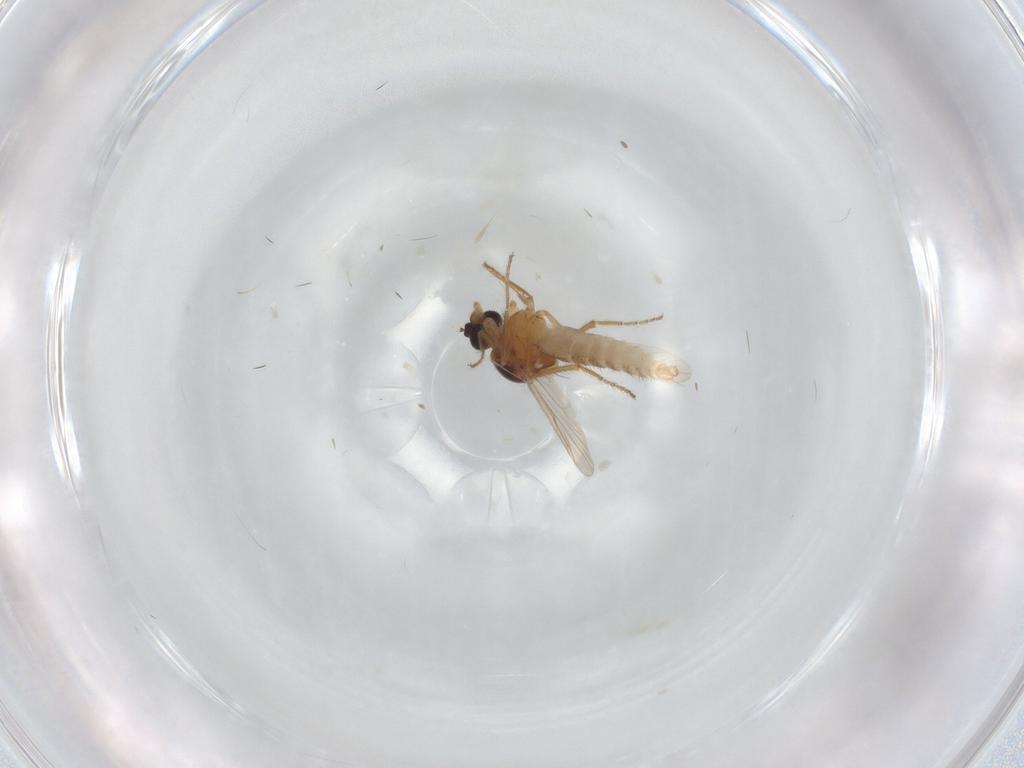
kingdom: Animalia
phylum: Arthropoda
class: Insecta
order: Diptera
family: Ceratopogonidae
